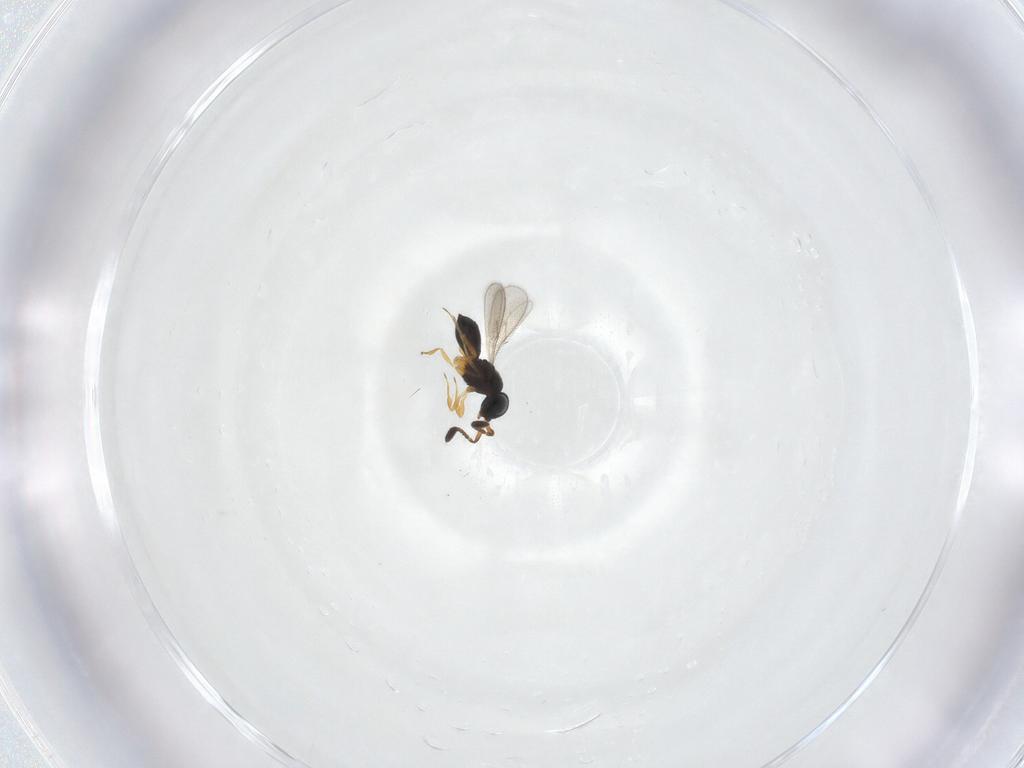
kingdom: Animalia
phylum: Arthropoda
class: Insecta
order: Hymenoptera
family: Scelionidae
